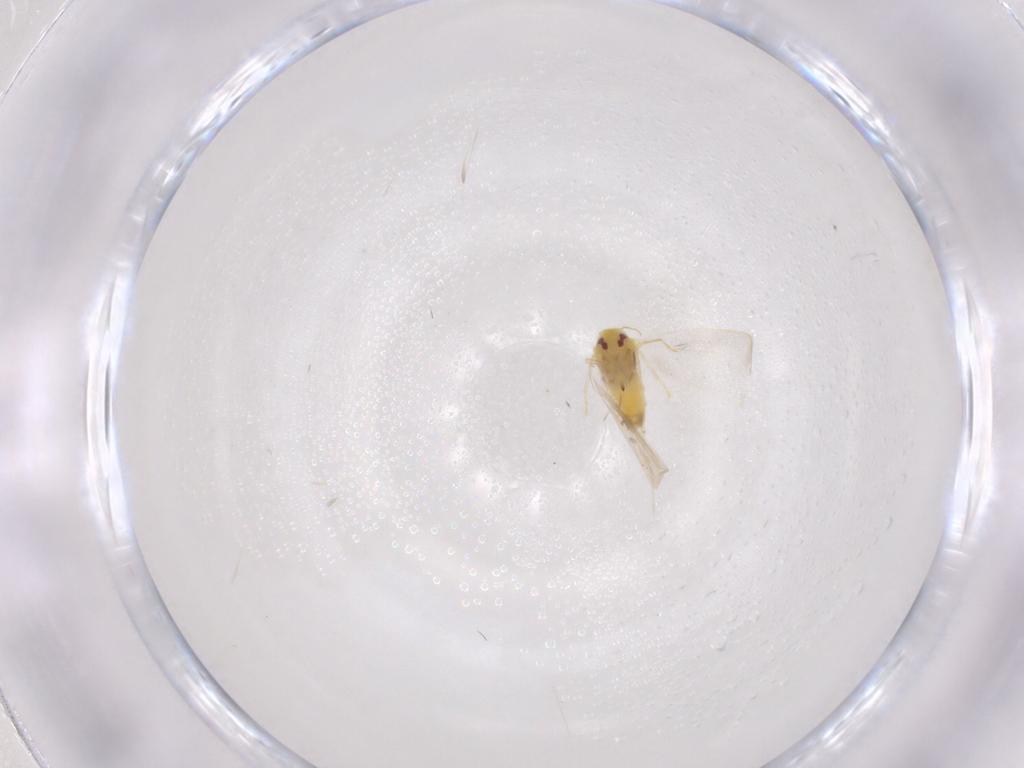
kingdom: Animalia
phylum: Arthropoda
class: Insecta
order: Hemiptera
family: Aleyrodidae
